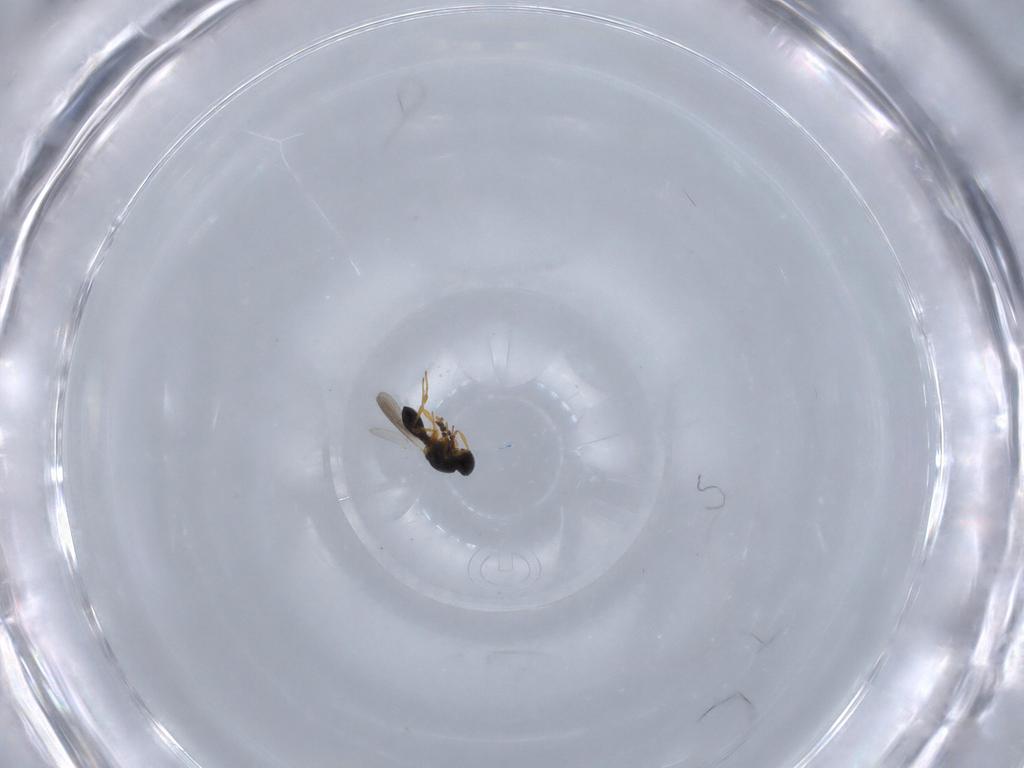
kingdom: Animalia
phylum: Arthropoda
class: Insecta
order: Hymenoptera
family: Platygastridae
